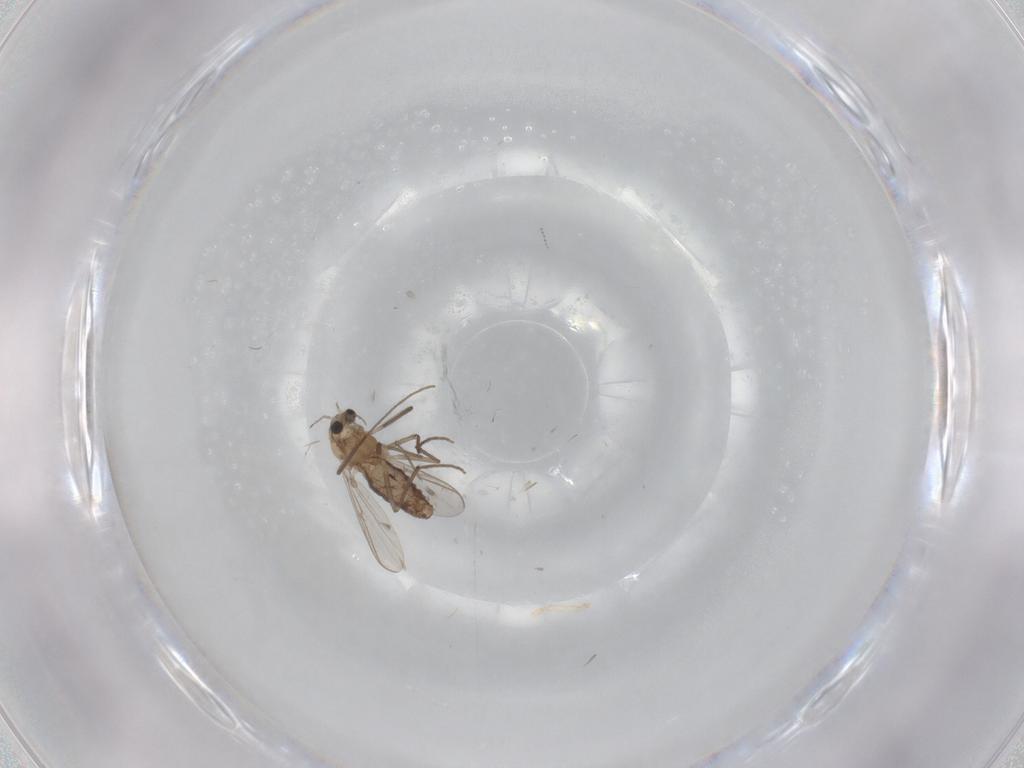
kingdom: Animalia
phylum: Arthropoda
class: Insecta
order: Diptera
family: Chironomidae
